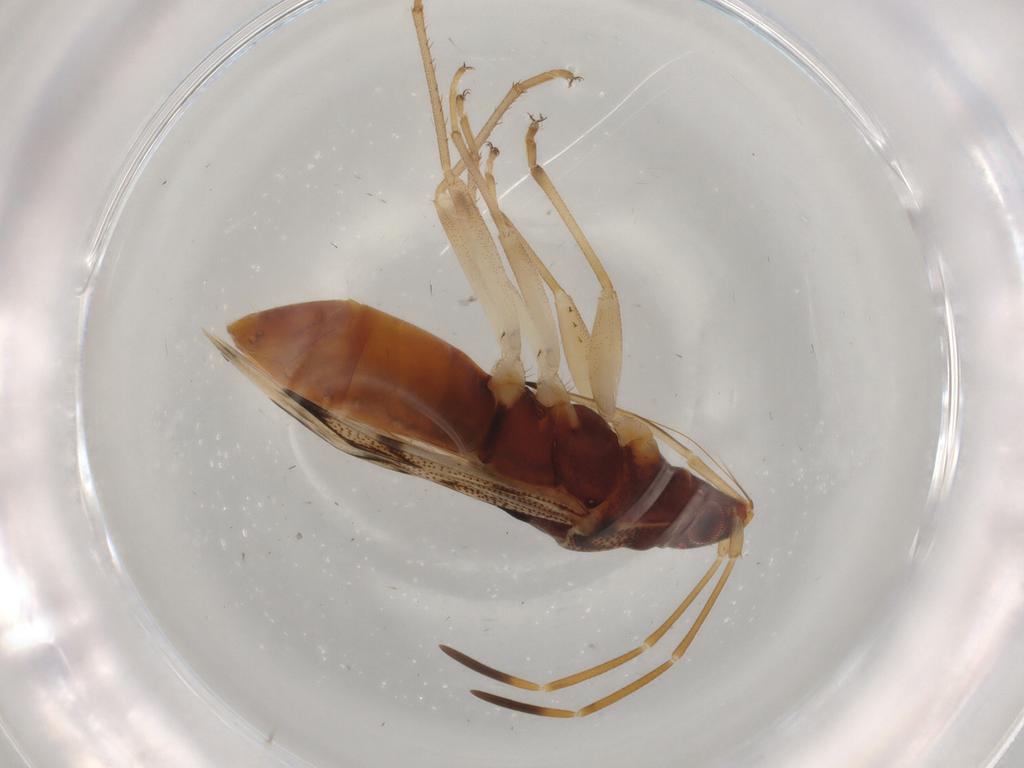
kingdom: Animalia
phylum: Arthropoda
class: Insecta
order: Hemiptera
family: Rhyparochromidae
